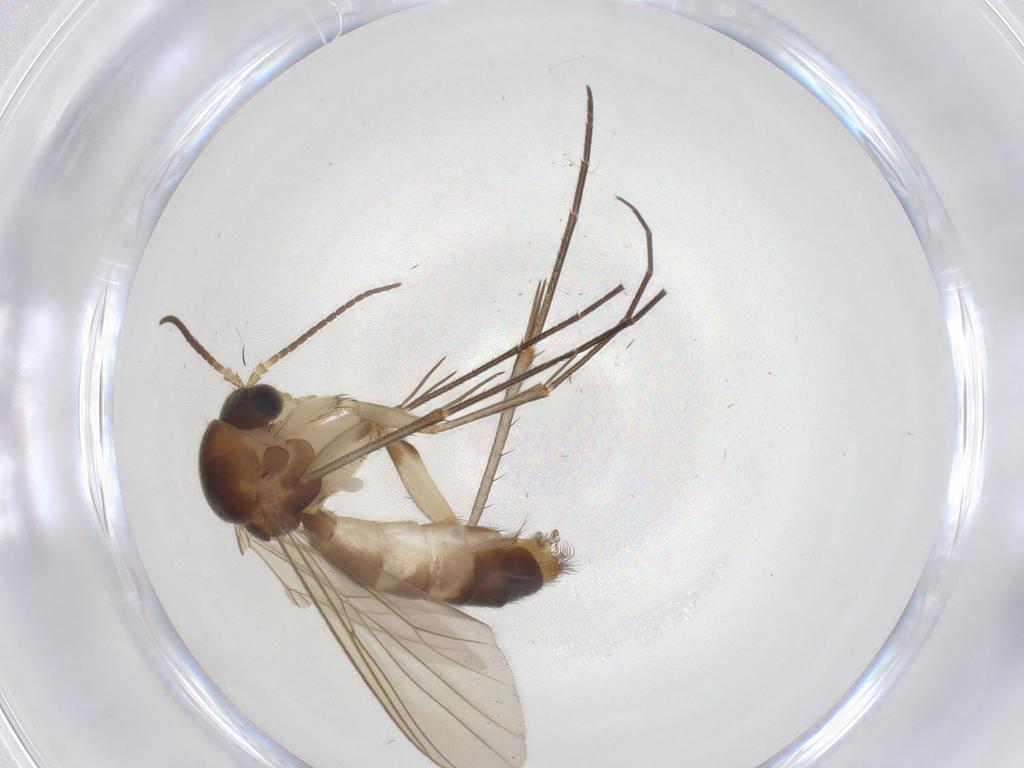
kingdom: Animalia
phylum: Arthropoda
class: Insecta
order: Diptera
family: Mycetophilidae
